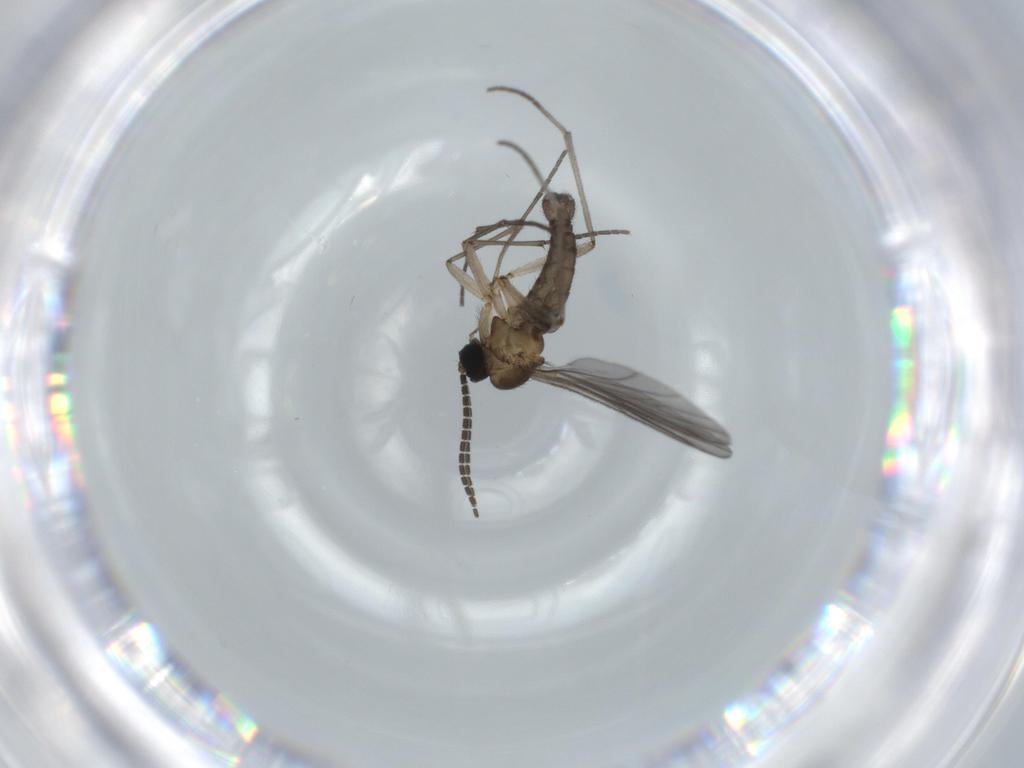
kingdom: Animalia
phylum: Arthropoda
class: Insecta
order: Diptera
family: Sciaridae
